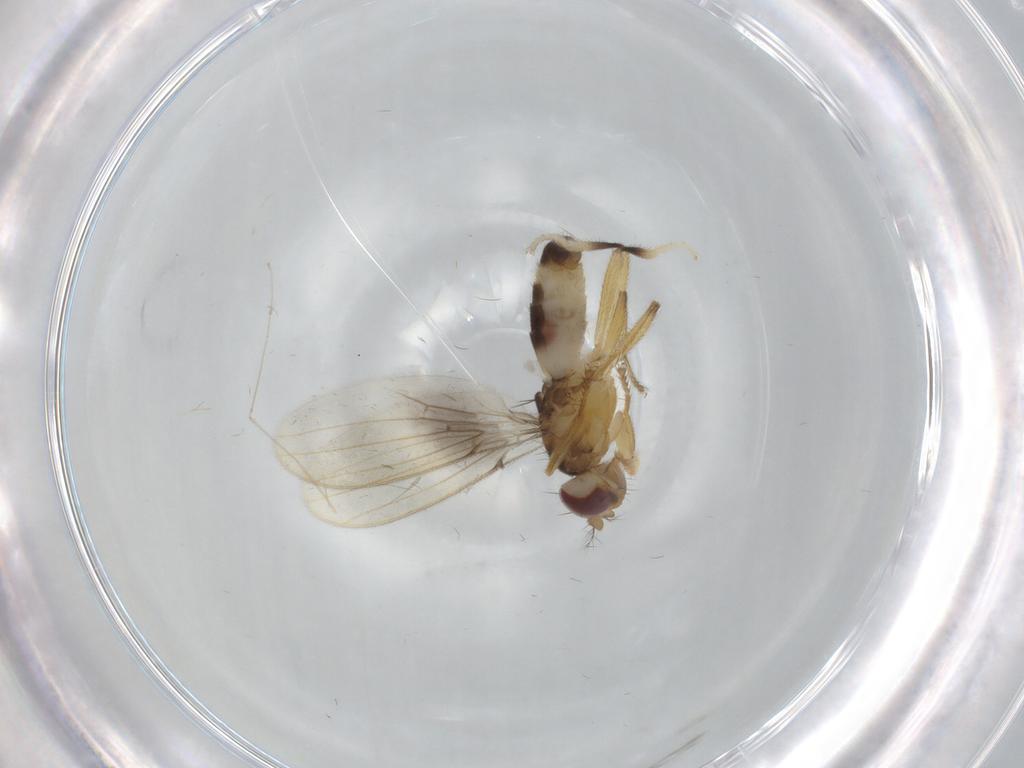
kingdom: Animalia
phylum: Arthropoda
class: Insecta
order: Diptera
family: Periscelididae
